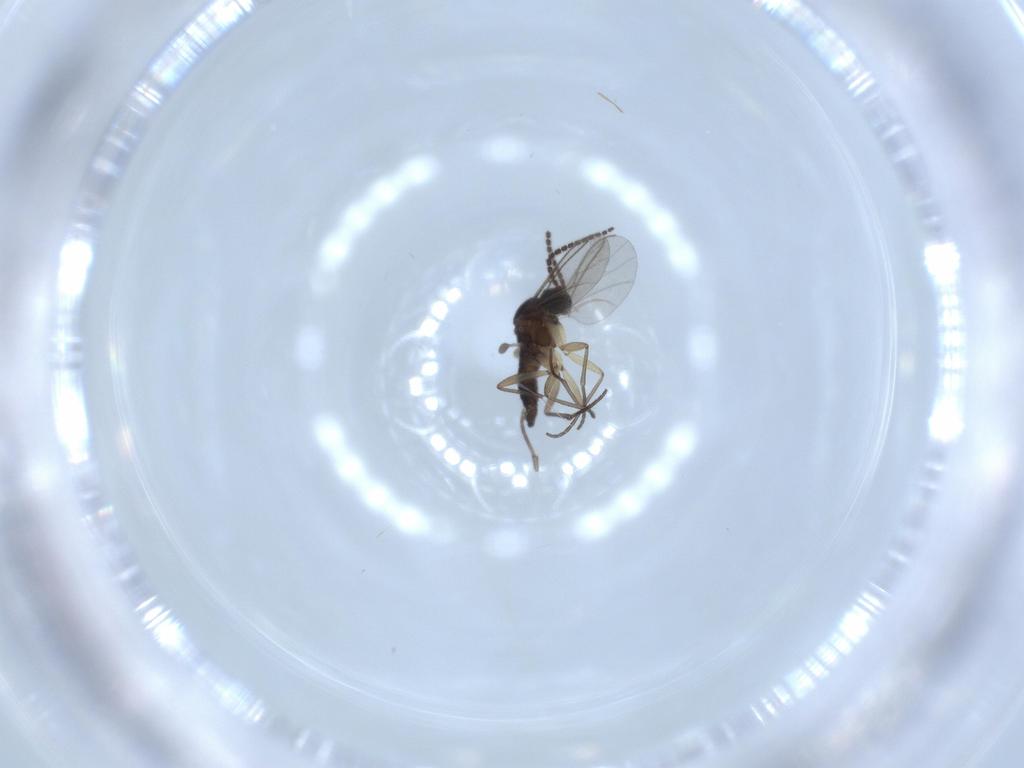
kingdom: Animalia
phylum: Arthropoda
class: Insecta
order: Diptera
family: Sciaridae
